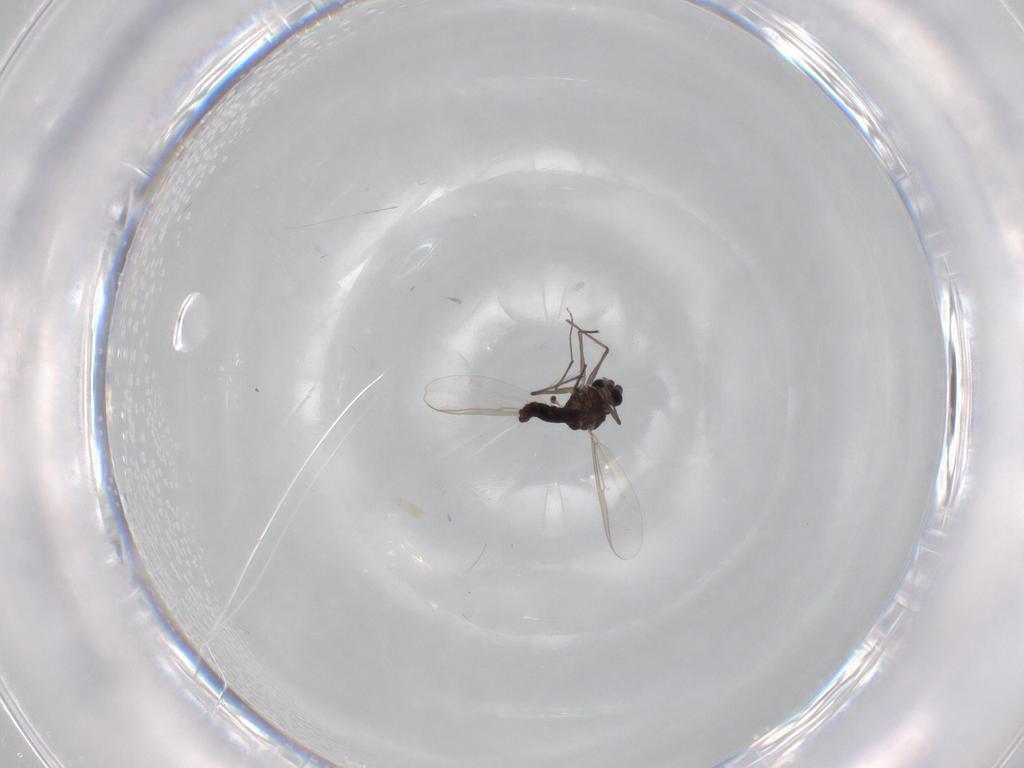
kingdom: Animalia
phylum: Arthropoda
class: Insecta
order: Diptera
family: Chironomidae
